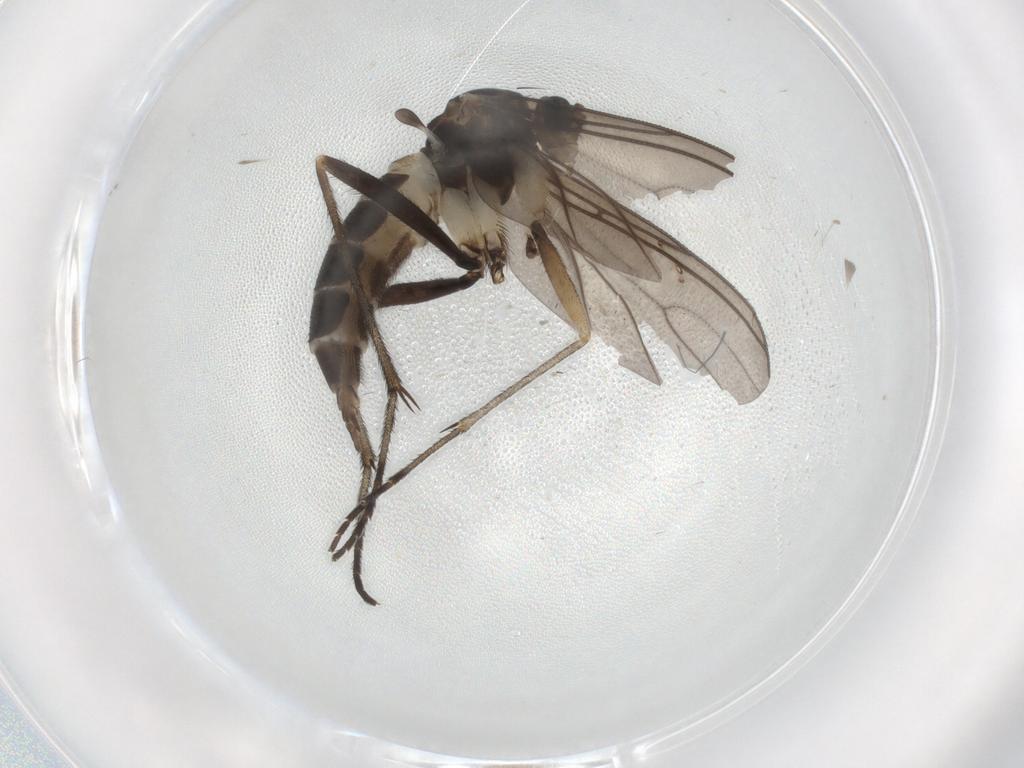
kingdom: Animalia
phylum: Arthropoda
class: Insecta
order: Diptera
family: Sciaridae
